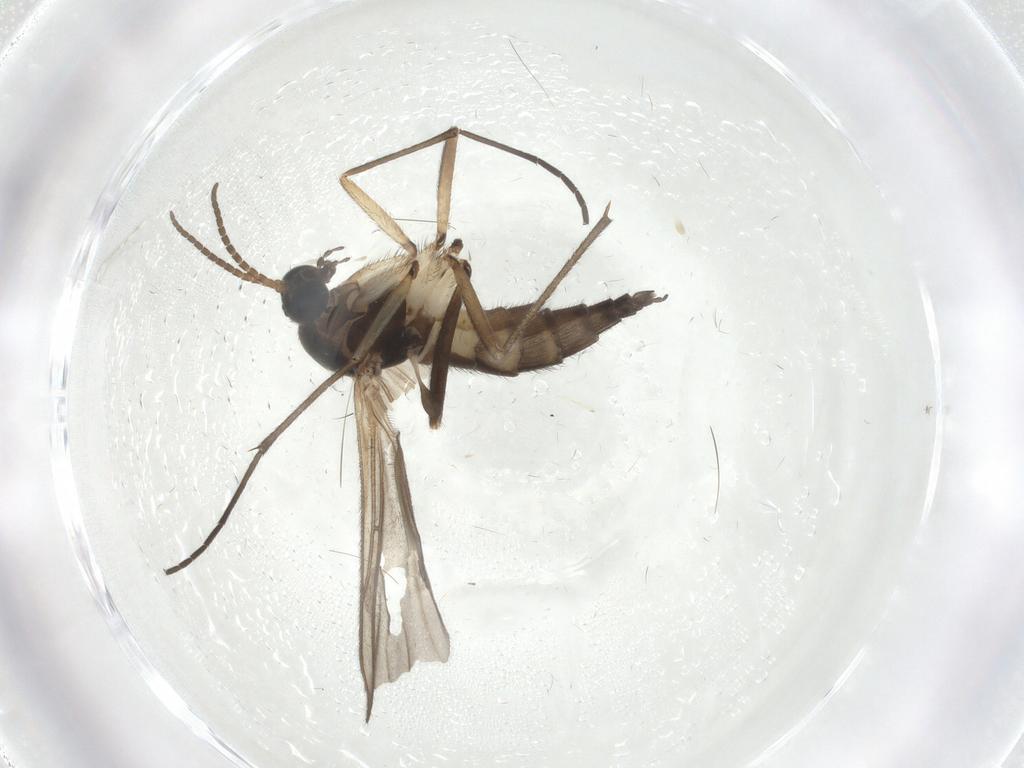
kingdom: Animalia
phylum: Arthropoda
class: Insecta
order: Diptera
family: Sciaridae
